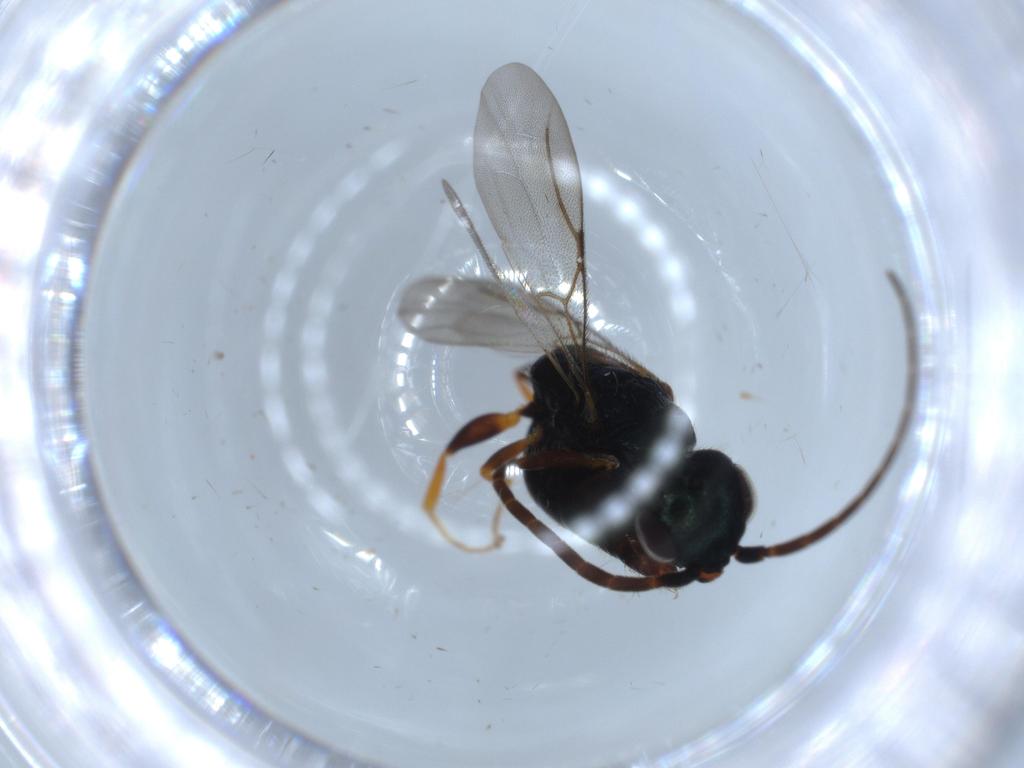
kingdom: Animalia
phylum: Arthropoda
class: Insecta
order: Hymenoptera
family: Bethylidae
